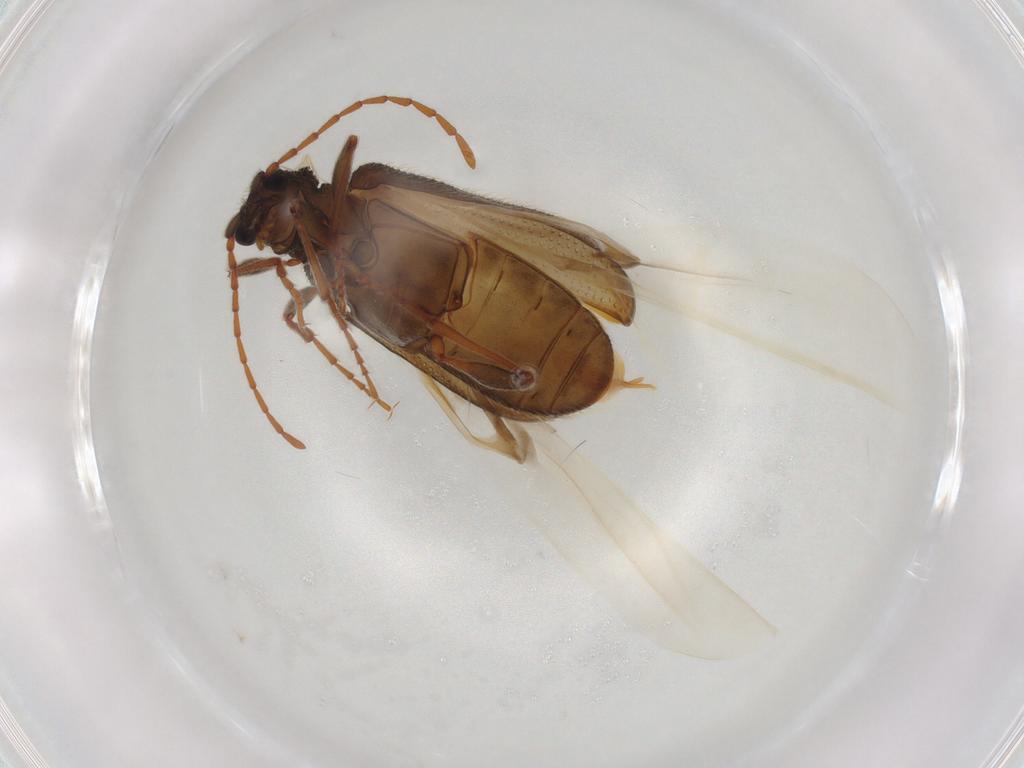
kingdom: Animalia
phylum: Arthropoda
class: Insecta
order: Coleoptera
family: Ptinidae
